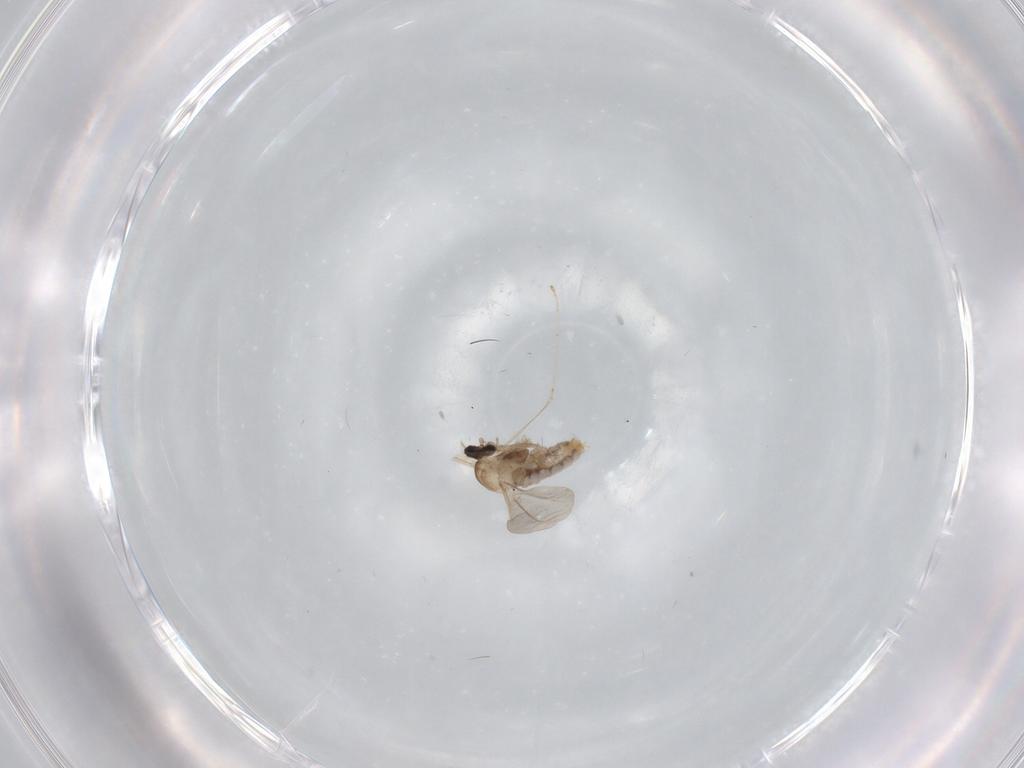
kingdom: Animalia
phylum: Arthropoda
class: Insecta
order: Diptera
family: Cecidomyiidae
